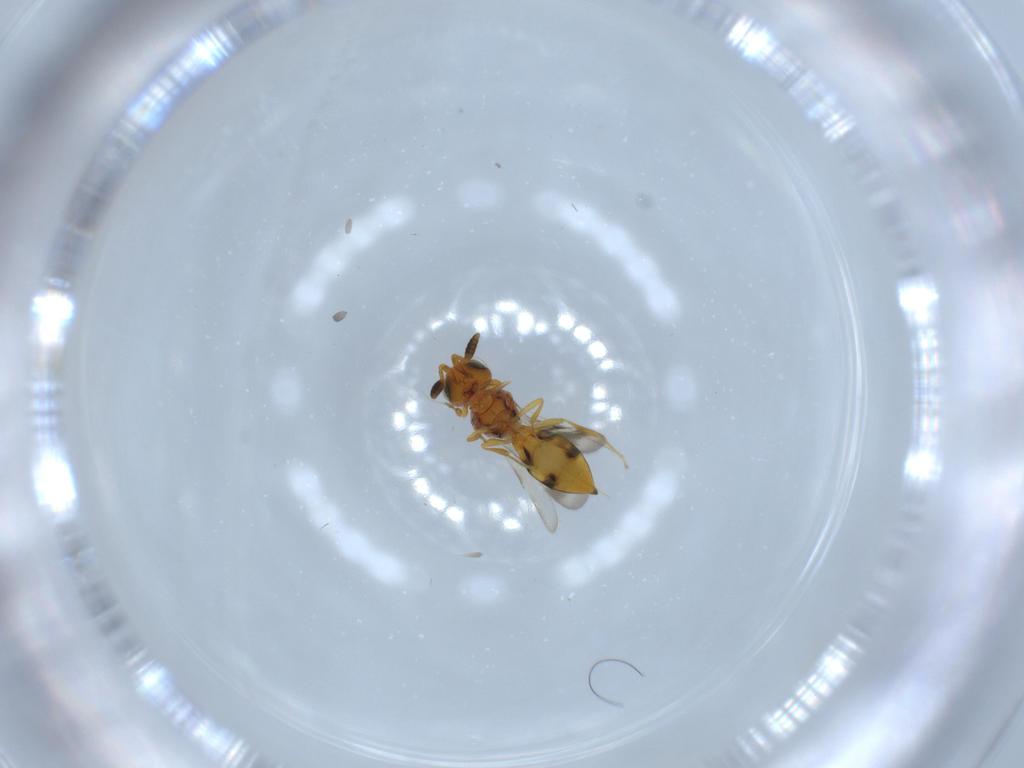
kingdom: Animalia
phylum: Arthropoda
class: Insecta
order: Hymenoptera
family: Scelionidae
